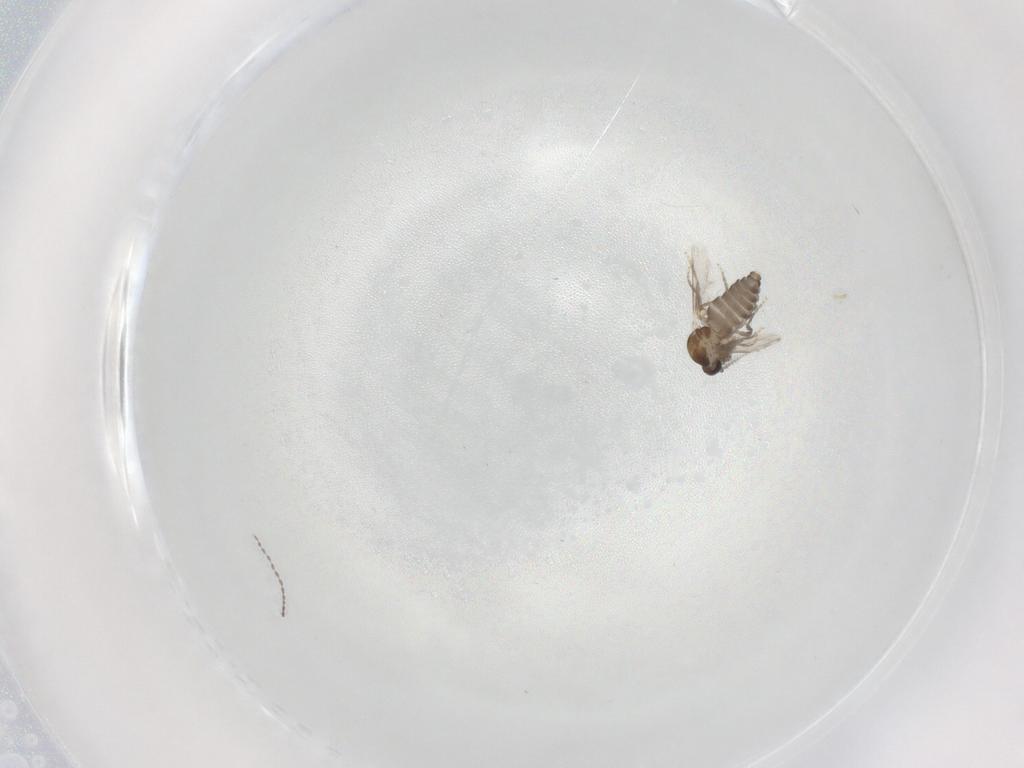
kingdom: Animalia
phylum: Arthropoda
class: Insecta
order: Diptera
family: Ceratopogonidae
